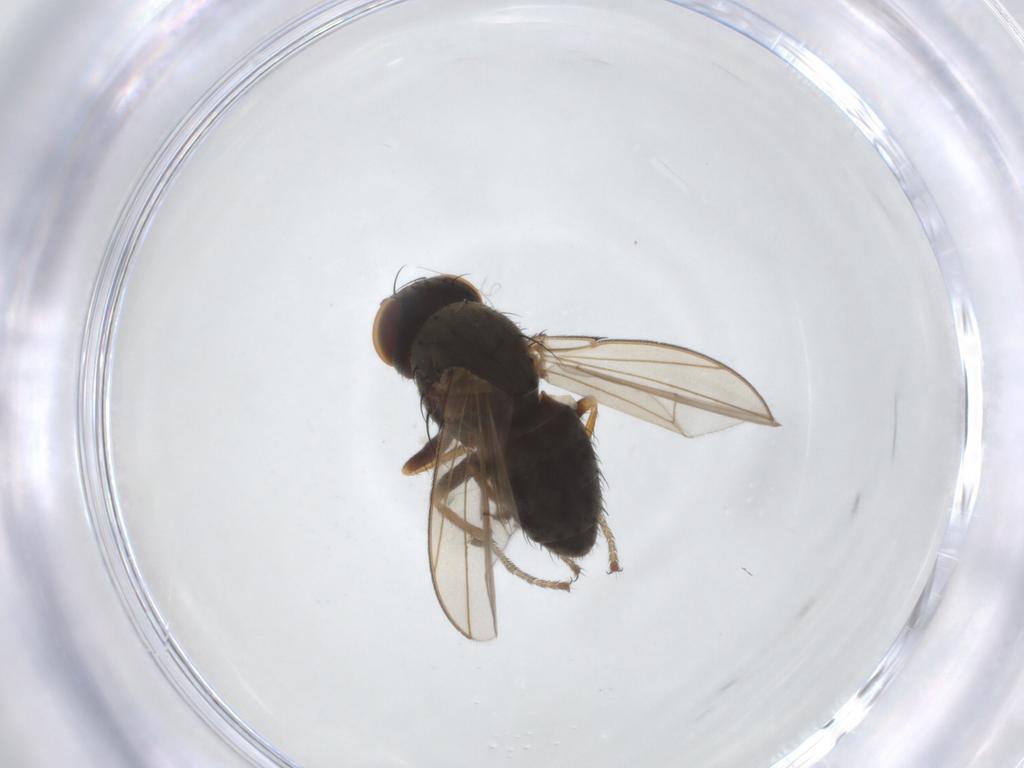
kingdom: Animalia
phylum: Arthropoda
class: Insecta
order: Diptera
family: Ephydridae
